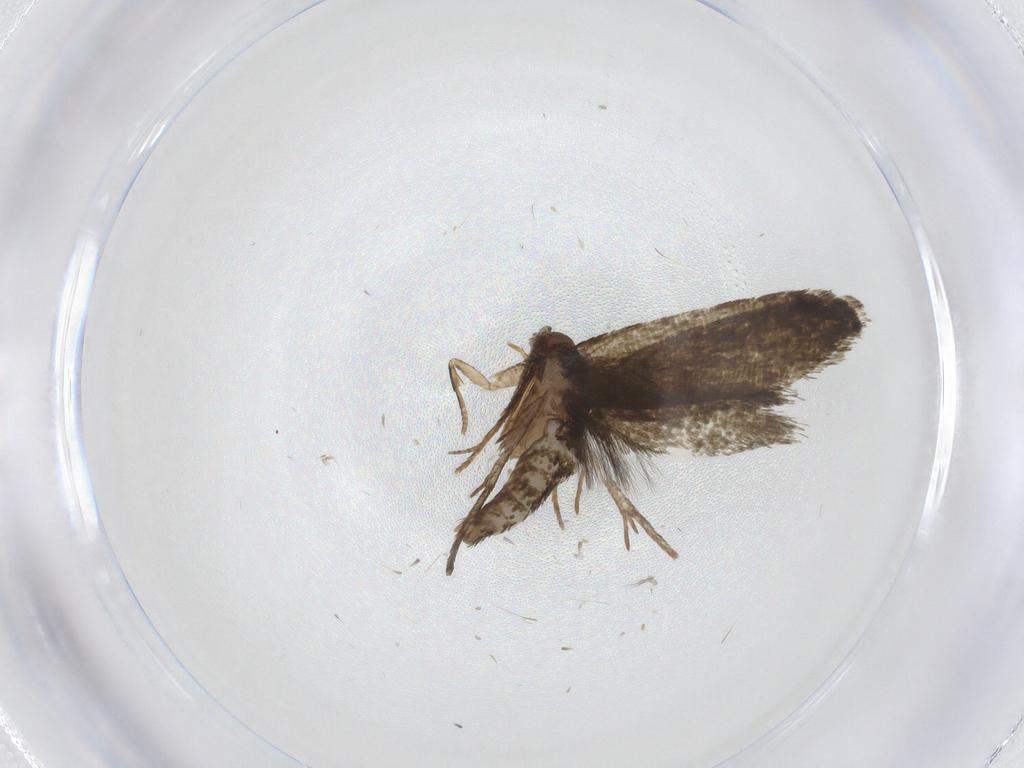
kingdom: Animalia
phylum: Arthropoda
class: Insecta
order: Lepidoptera
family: Tineidae
